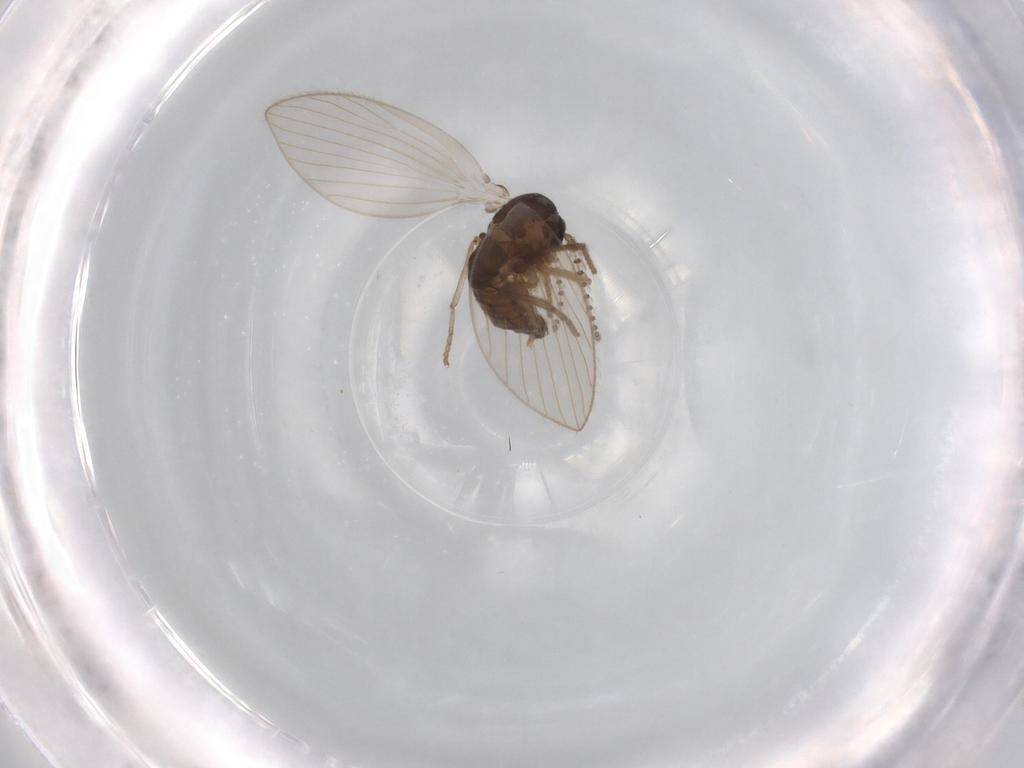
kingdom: Animalia
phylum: Arthropoda
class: Insecta
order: Diptera
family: Psychodidae
